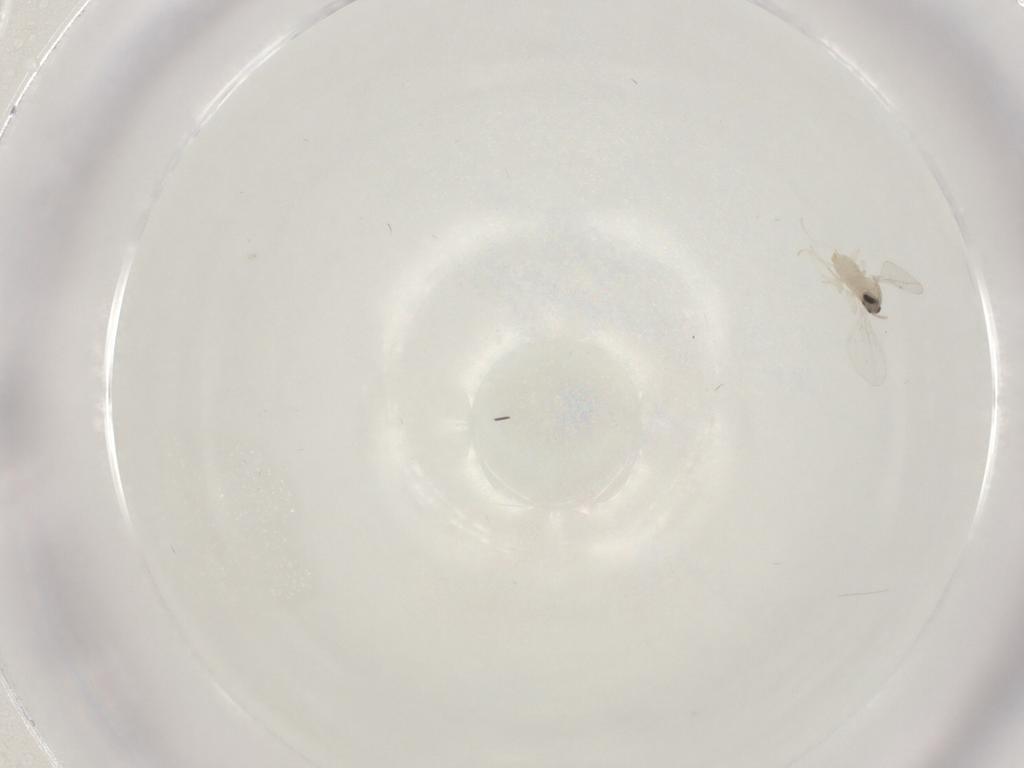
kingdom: Animalia
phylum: Arthropoda
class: Insecta
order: Diptera
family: Cecidomyiidae
